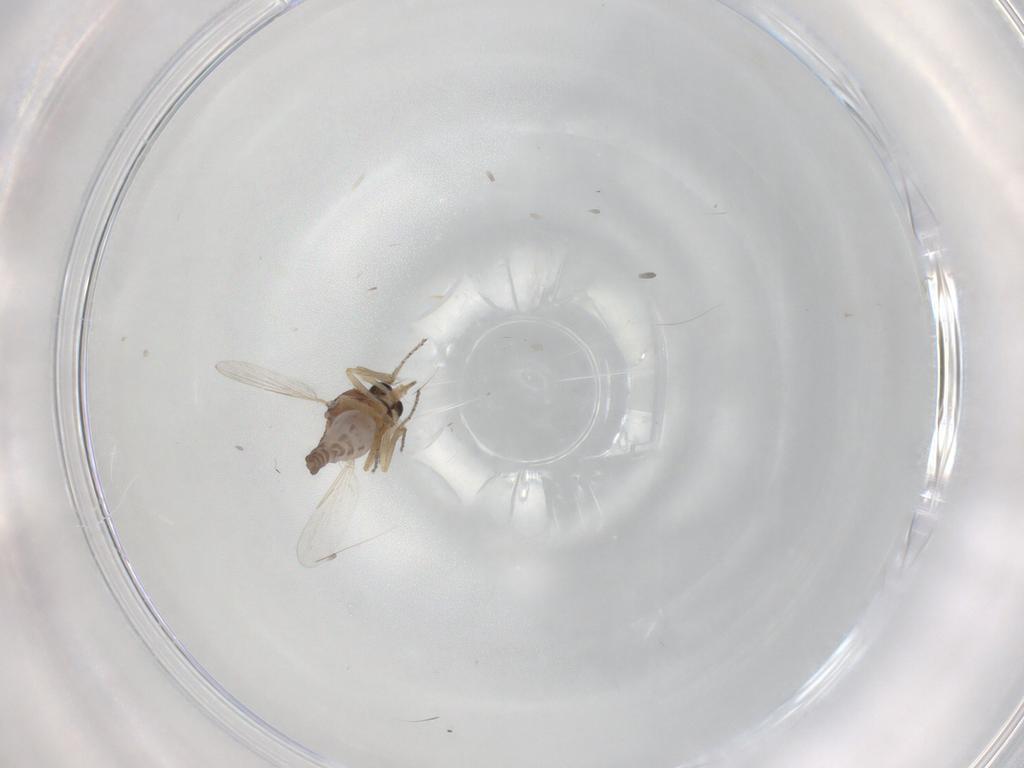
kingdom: Animalia
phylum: Arthropoda
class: Insecta
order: Diptera
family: Ceratopogonidae
